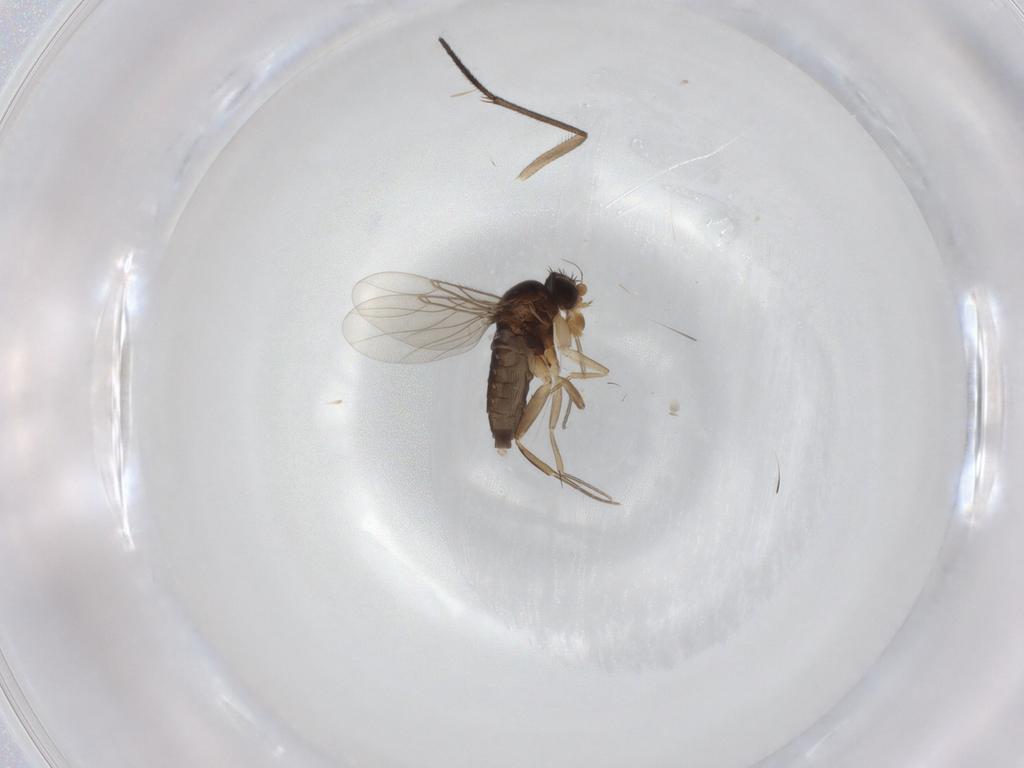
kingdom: Animalia
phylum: Arthropoda
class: Insecta
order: Diptera
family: Phoridae
